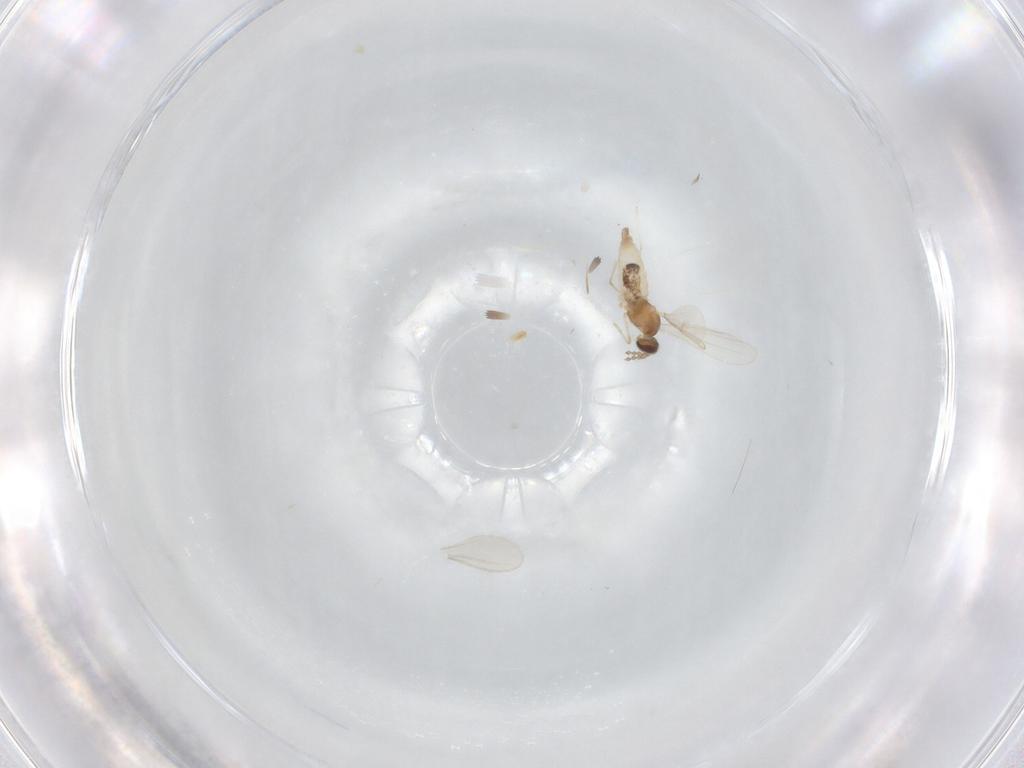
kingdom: Animalia
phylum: Arthropoda
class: Insecta
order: Diptera
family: Cecidomyiidae
